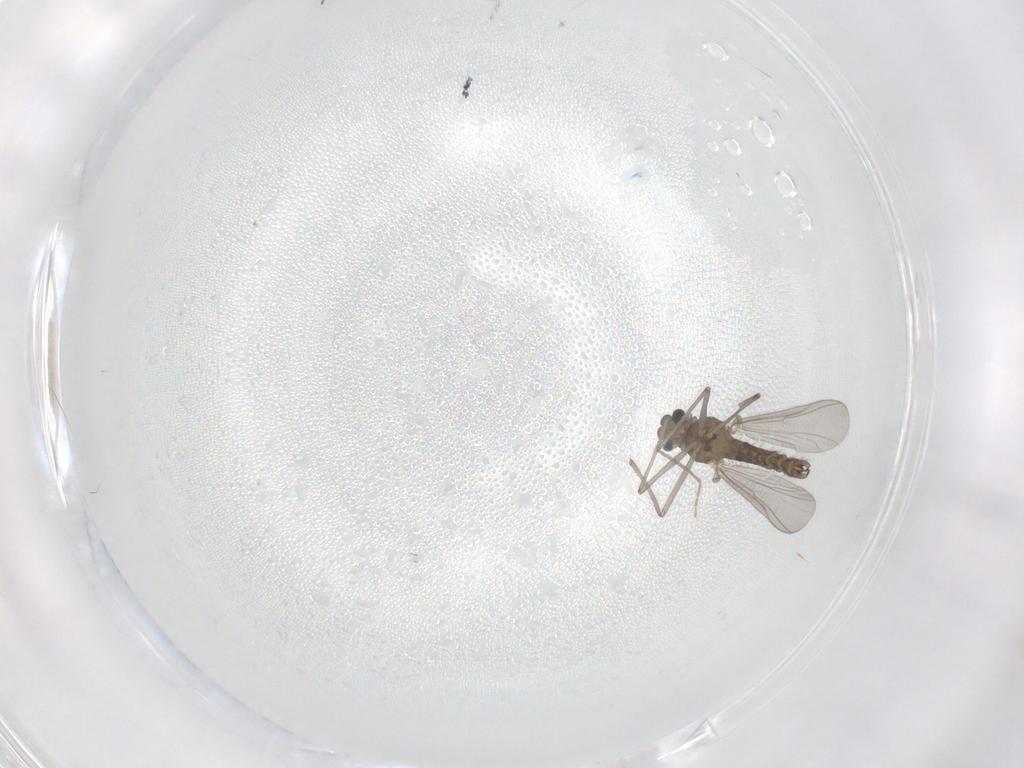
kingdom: Animalia
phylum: Arthropoda
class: Insecta
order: Diptera
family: Chironomidae
